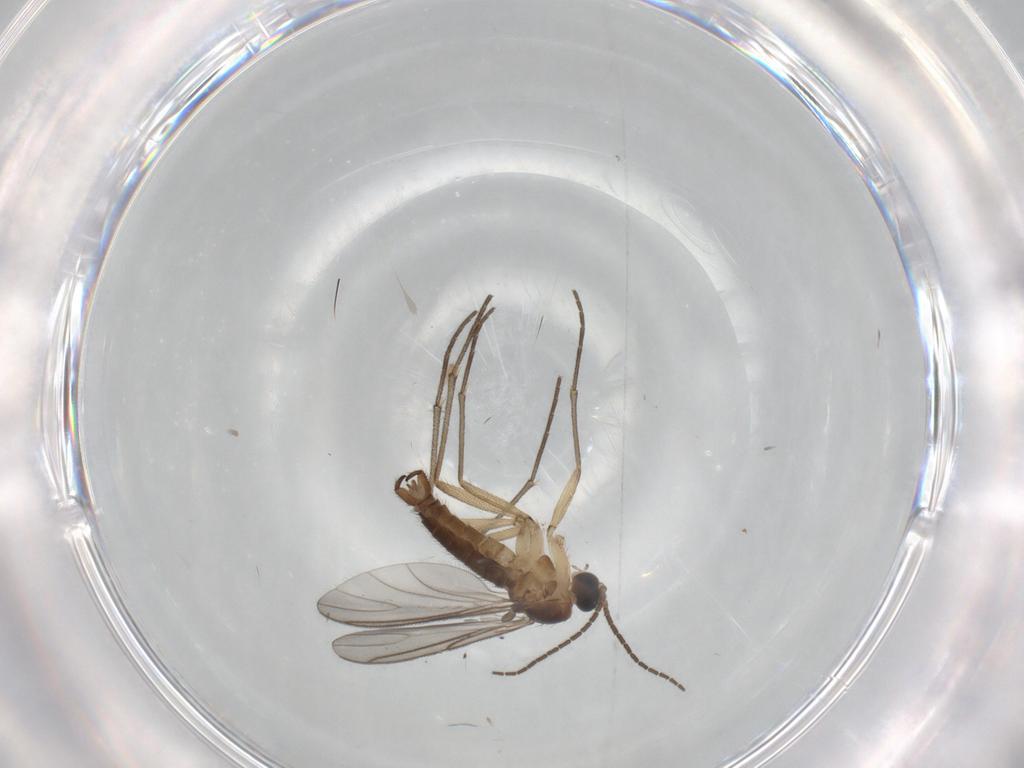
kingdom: Animalia
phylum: Arthropoda
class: Insecta
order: Diptera
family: Sciaridae
